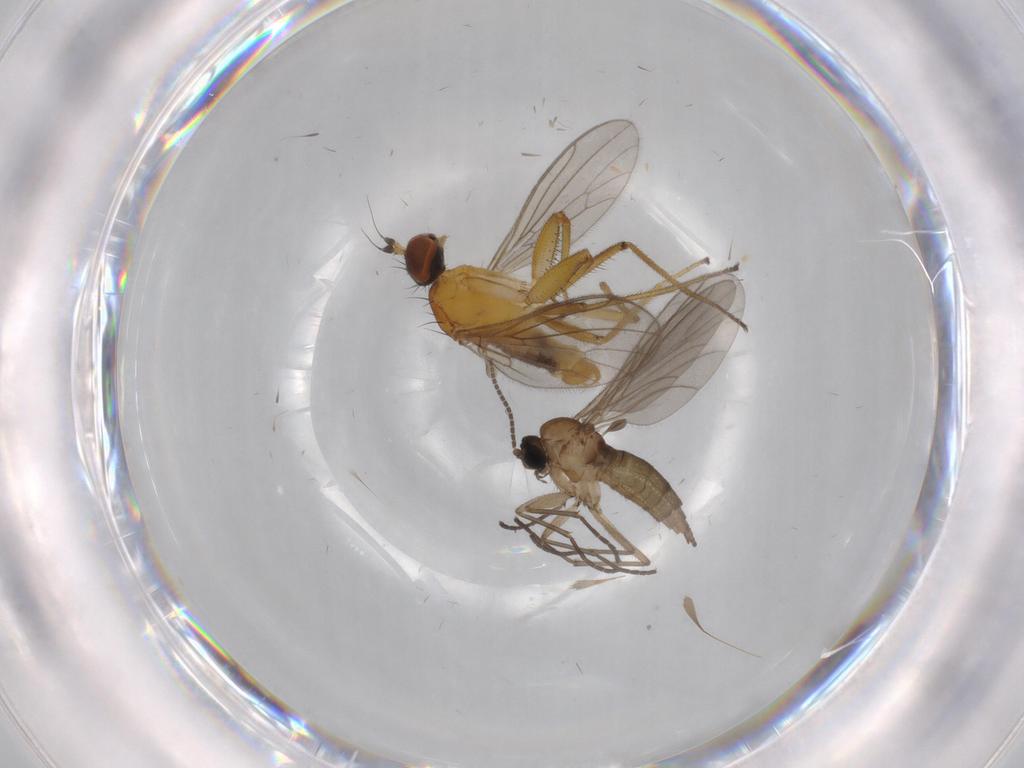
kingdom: Animalia
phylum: Arthropoda
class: Insecta
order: Diptera
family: Empididae
